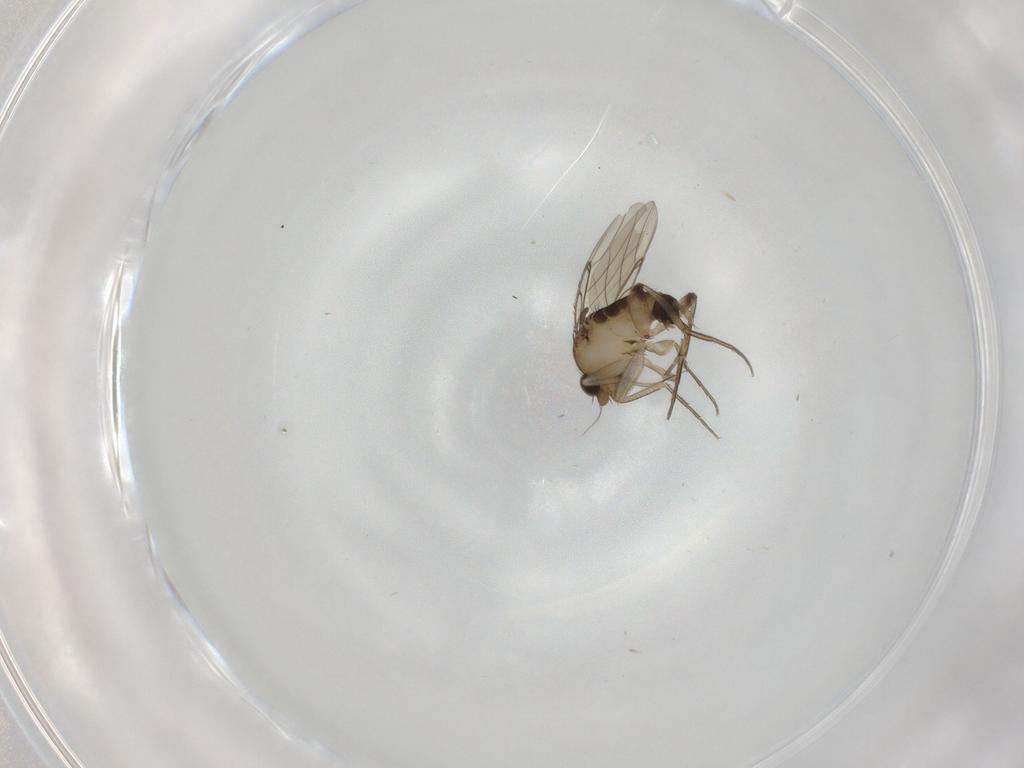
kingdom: Animalia
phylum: Arthropoda
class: Insecta
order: Diptera
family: Phoridae
